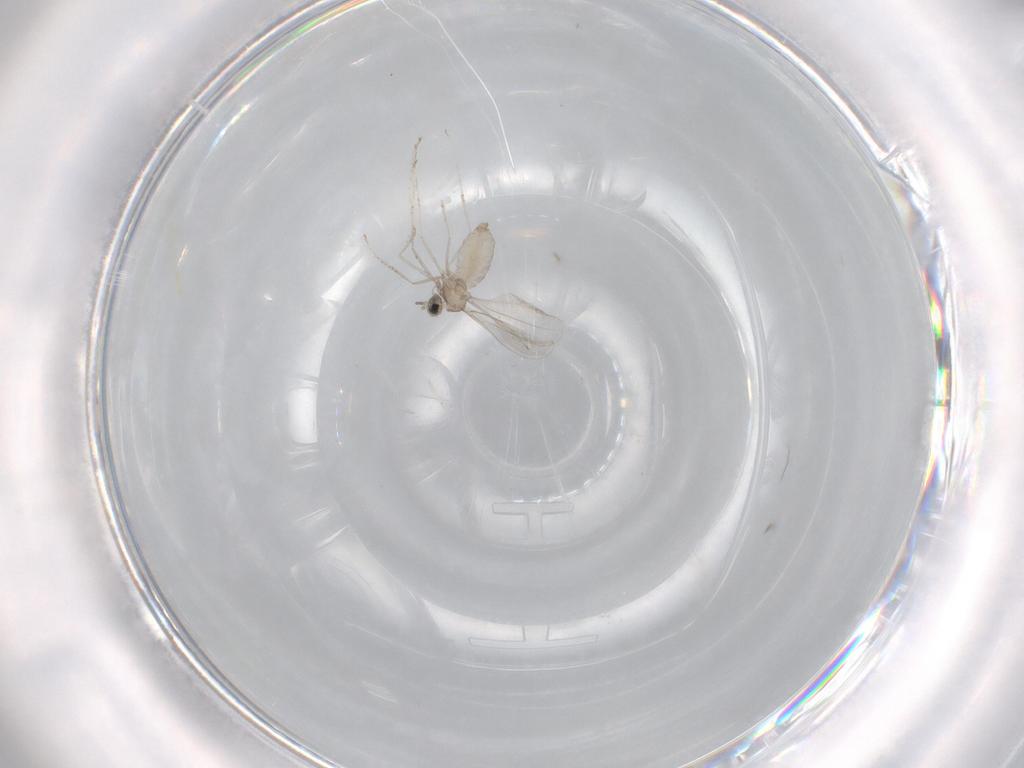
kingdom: Animalia
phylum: Arthropoda
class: Insecta
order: Diptera
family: Cecidomyiidae
